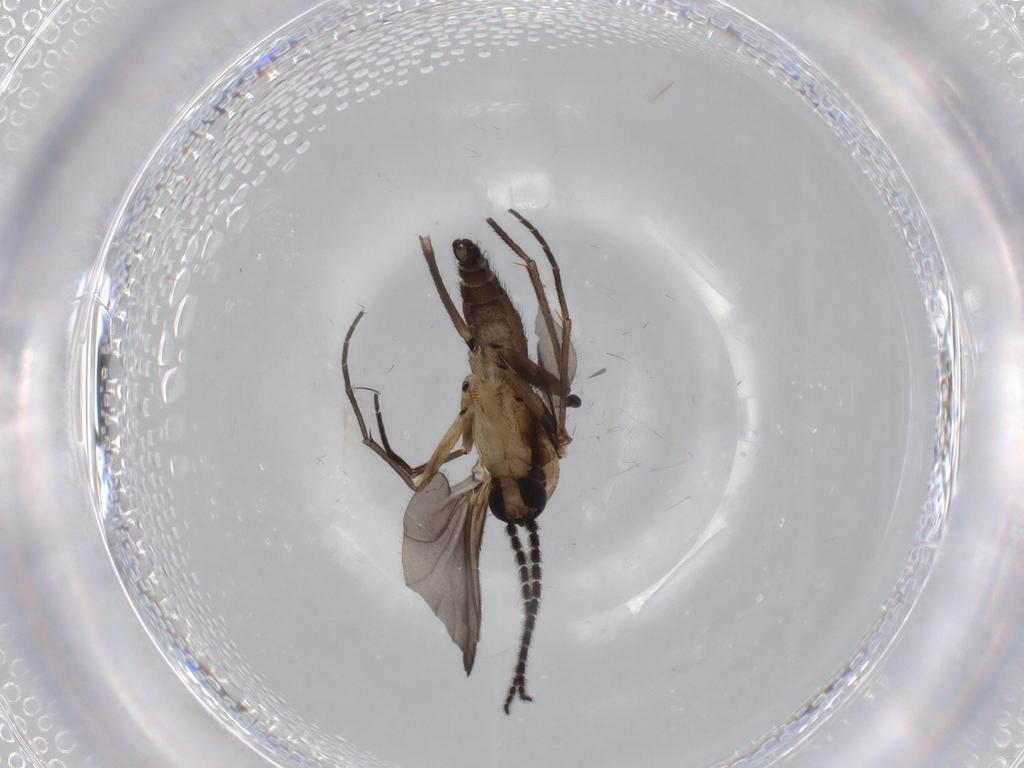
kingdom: Animalia
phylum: Arthropoda
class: Insecta
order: Diptera
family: Sciaridae
